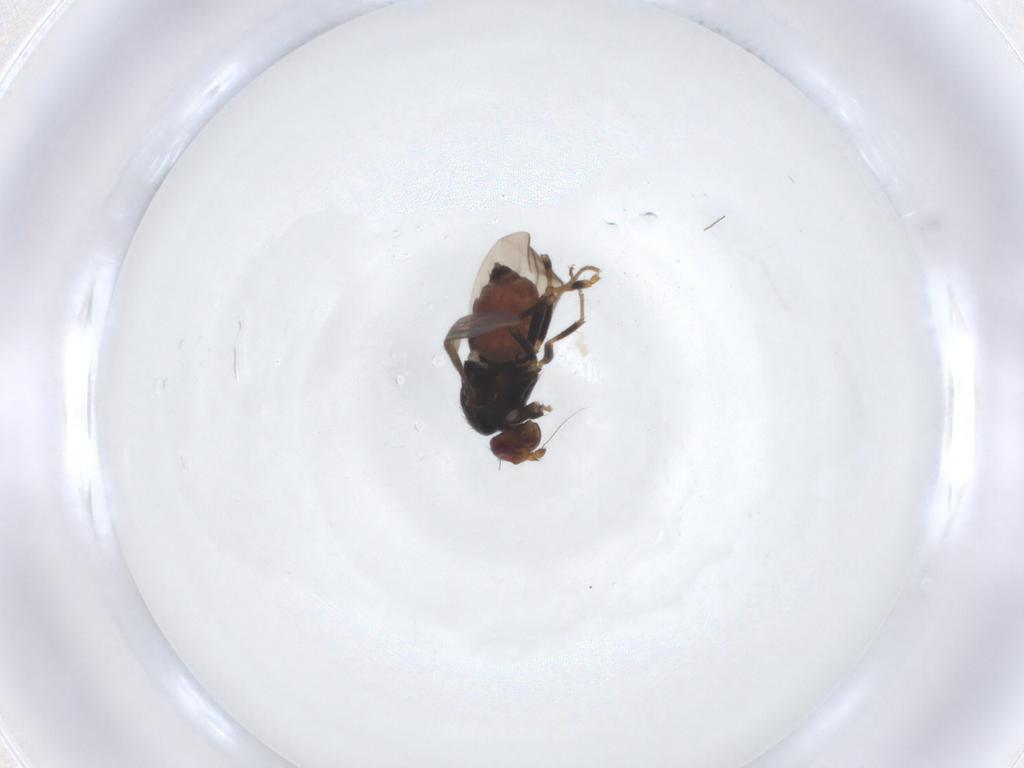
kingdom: Animalia
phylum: Arthropoda
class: Insecta
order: Diptera
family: Sphaeroceridae
